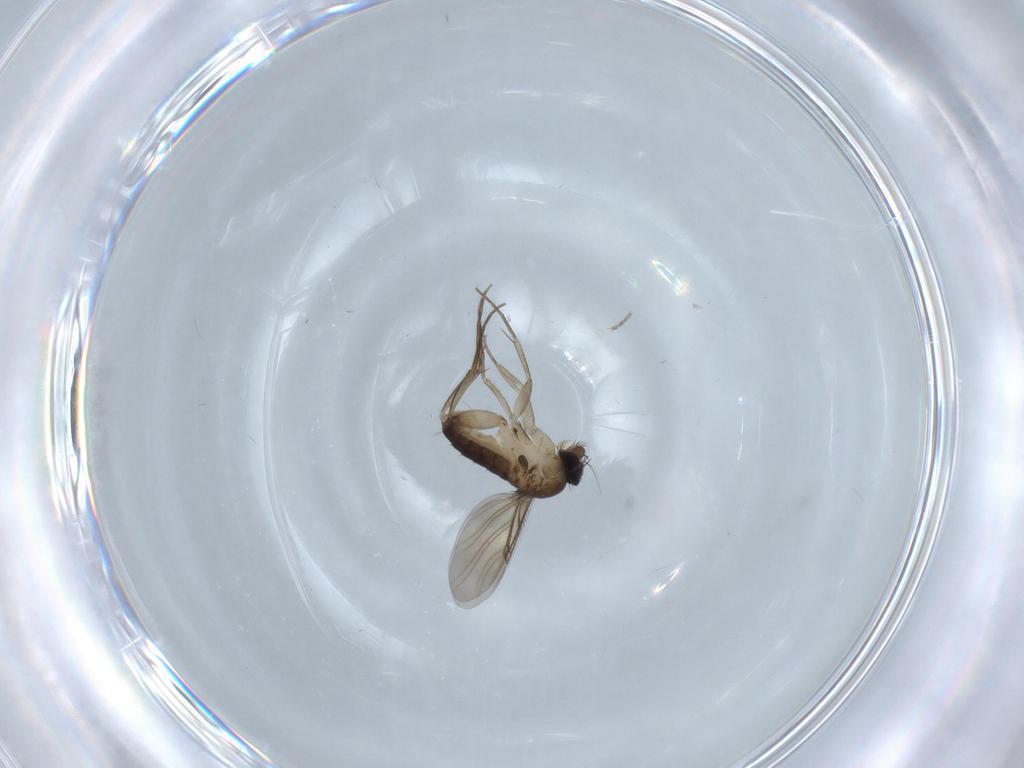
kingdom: Animalia
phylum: Arthropoda
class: Insecta
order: Diptera
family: Phoridae
